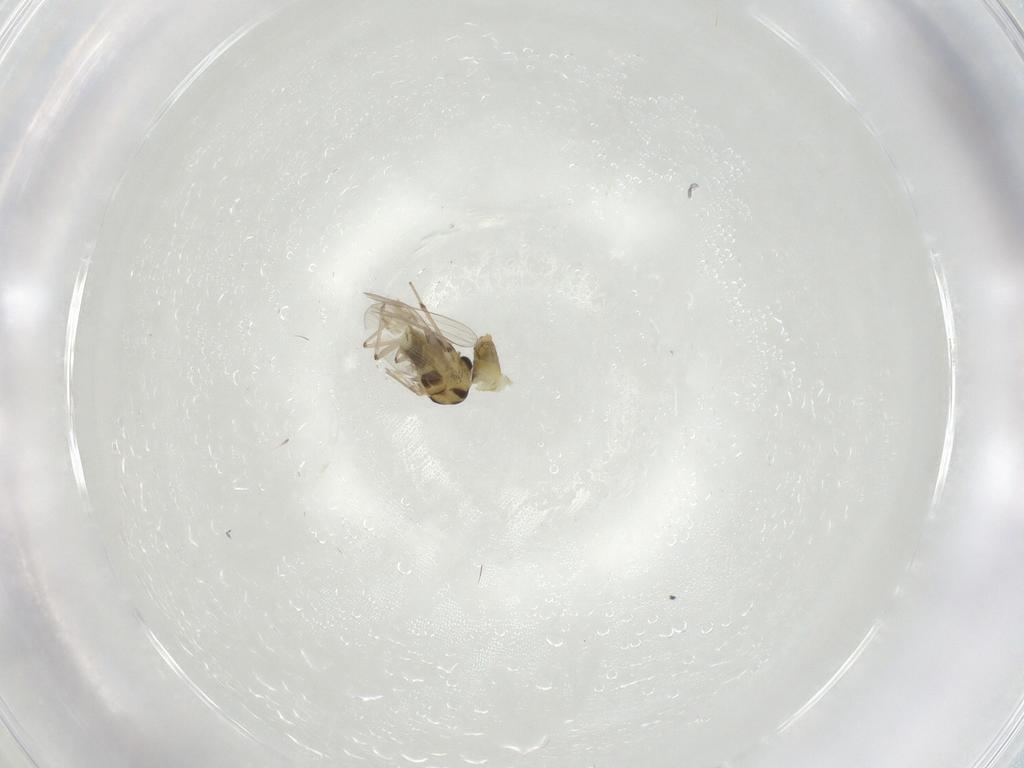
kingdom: Animalia
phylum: Arthropoda
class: Insecta
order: Diptera
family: Chironomidae
